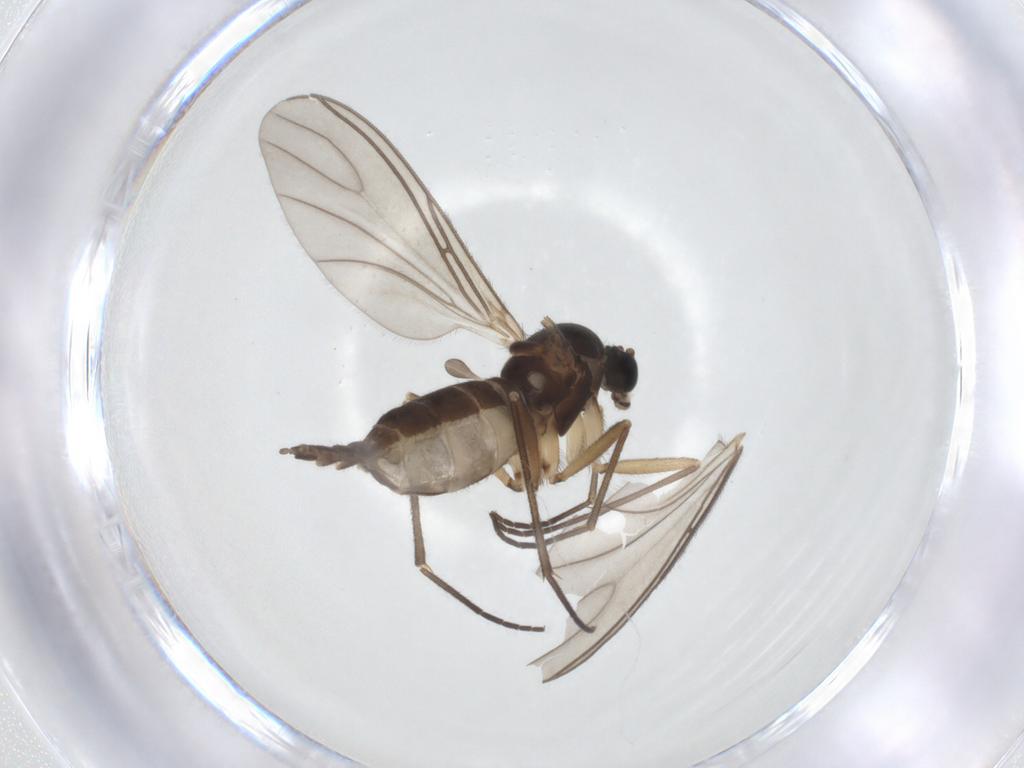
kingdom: Animalia
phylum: Arthropoda
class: Insecta
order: Diptera
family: Sciaridae
